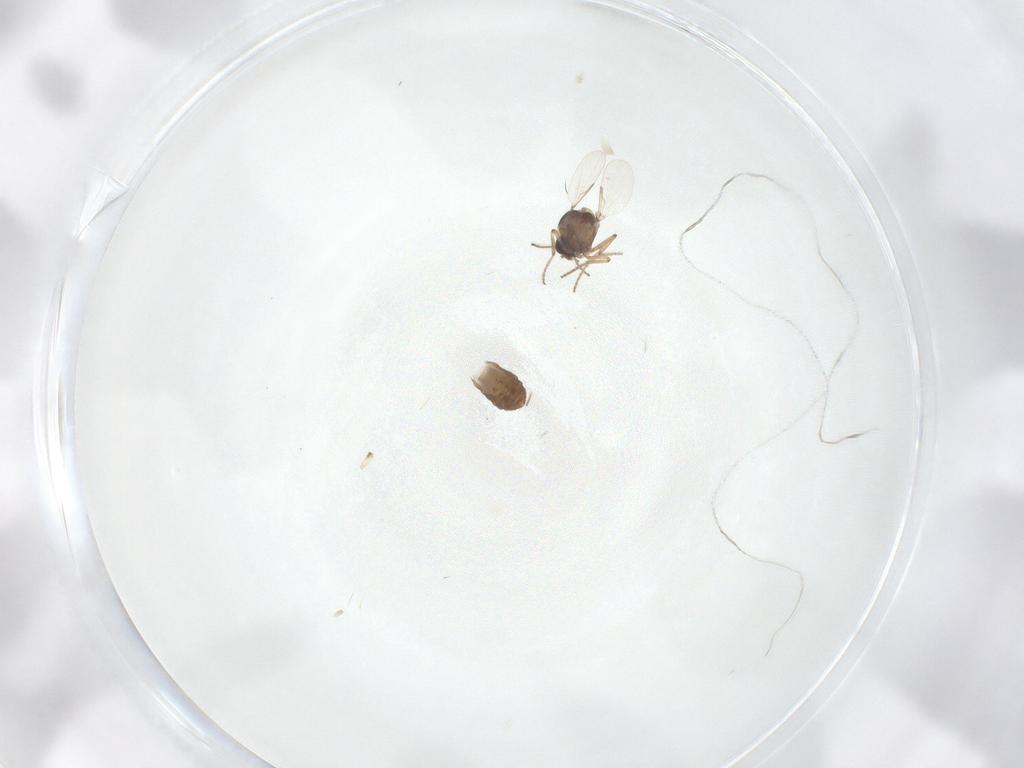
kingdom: Animalia
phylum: Arthropoda
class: Insecta
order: Diptera
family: Ceratopogonidae
